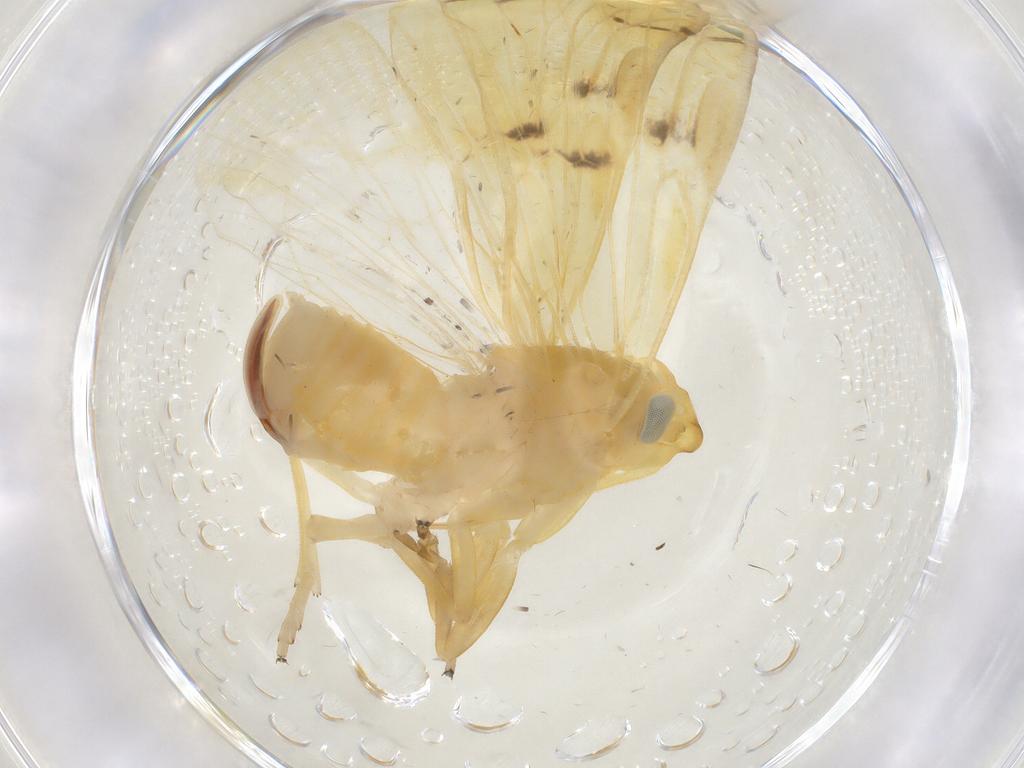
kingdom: Animalia
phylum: Arthropoda
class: Insecta
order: Hemiptera
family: Cixiidae
